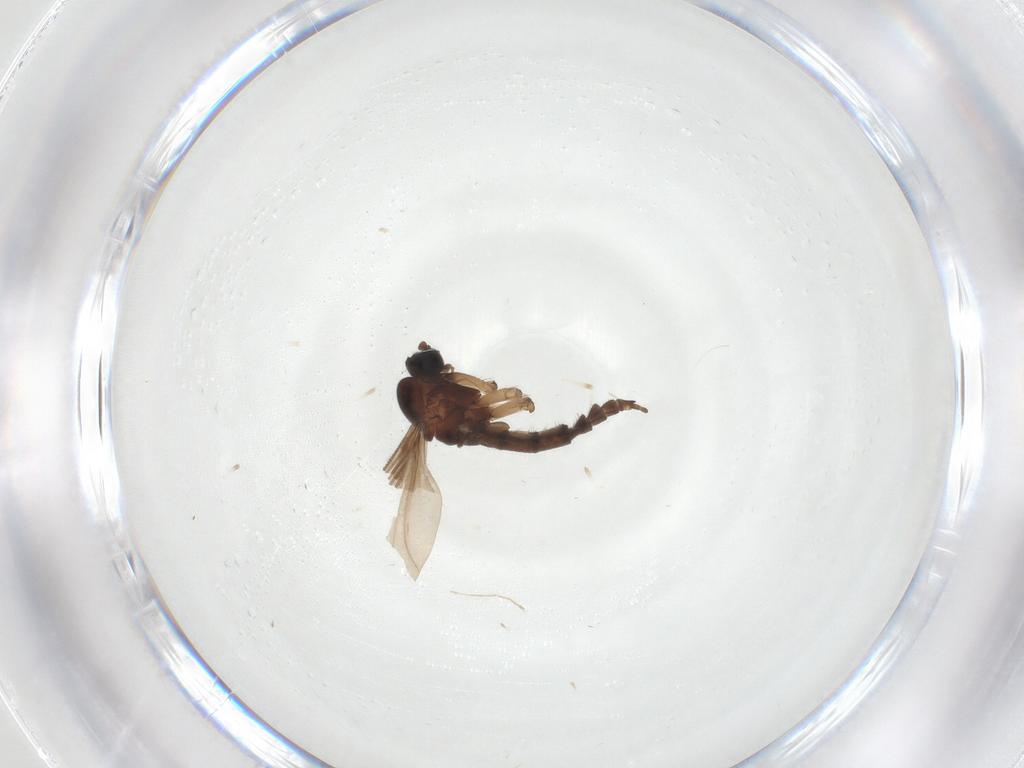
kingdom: Animalia
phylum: Arthropoda
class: Insecta
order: Diptera
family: Sciaridae
